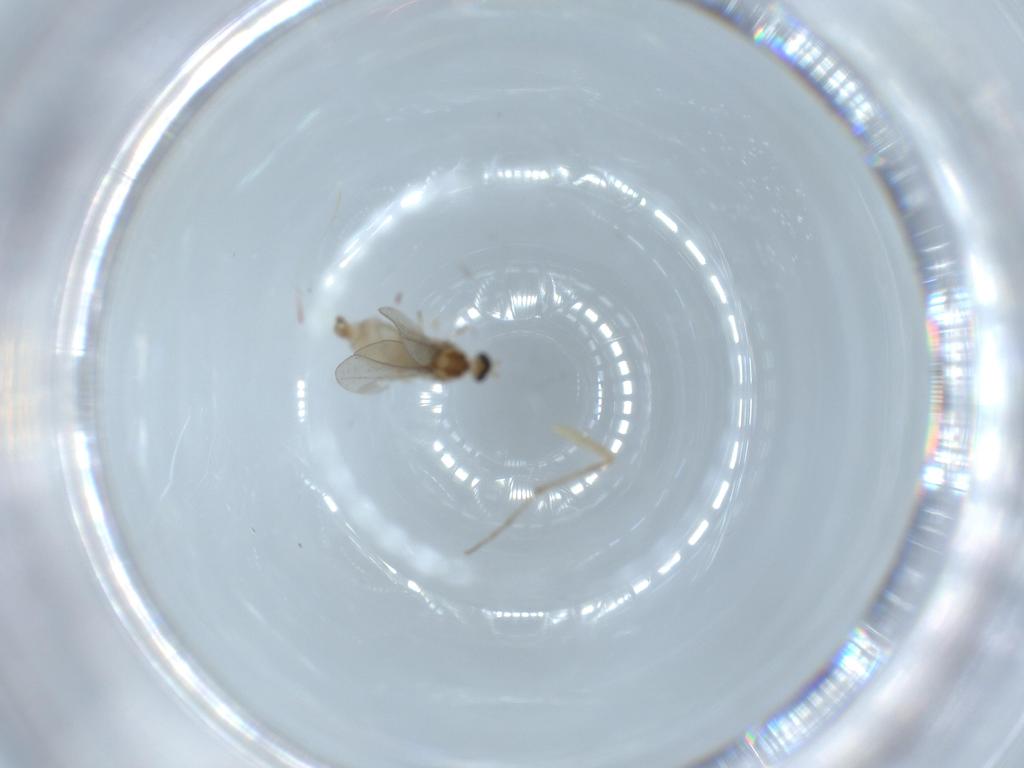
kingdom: Animalia
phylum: Arthropoda
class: Insecta
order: Diptera
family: Cecidomyiidae
